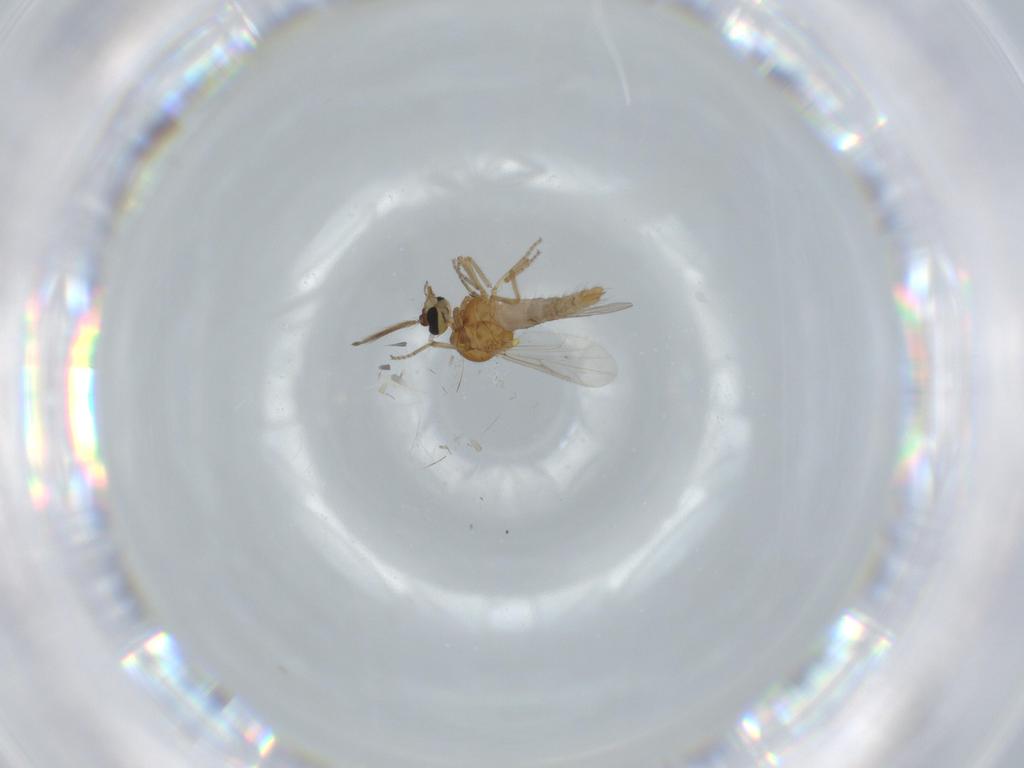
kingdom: Animalia
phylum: Arthropoda
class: Insecta
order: Diptera
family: Ceratopogonidae
